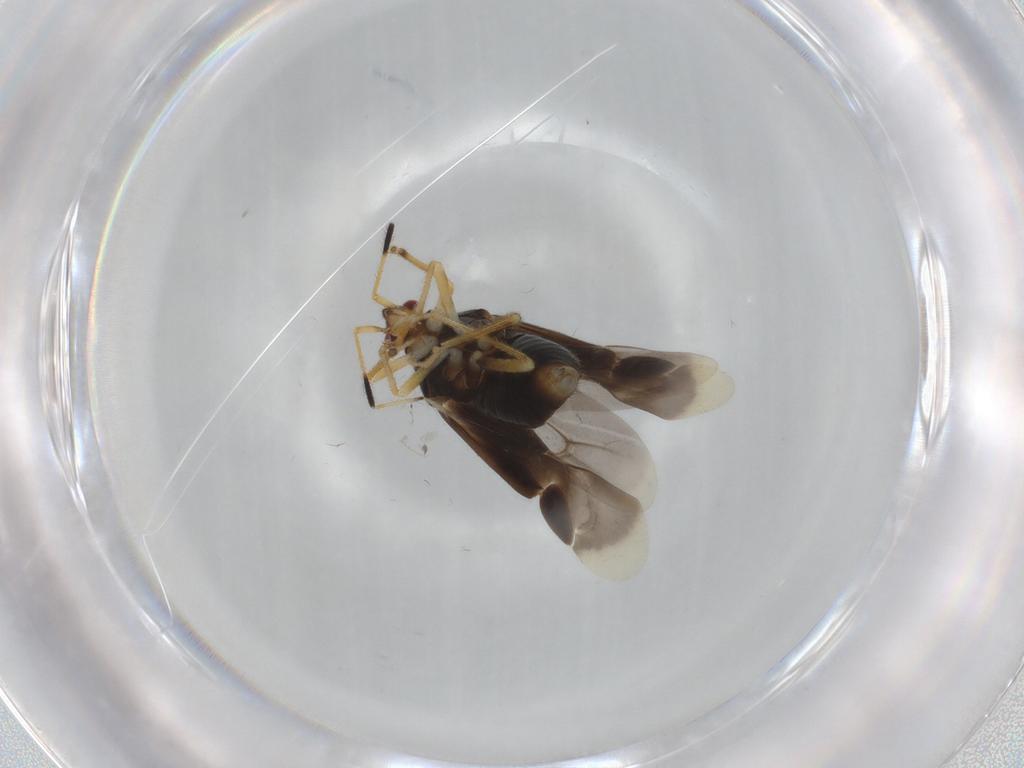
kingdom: Animalia
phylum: Arthropoda
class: Insecta
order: Hemiptera
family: Miridae
